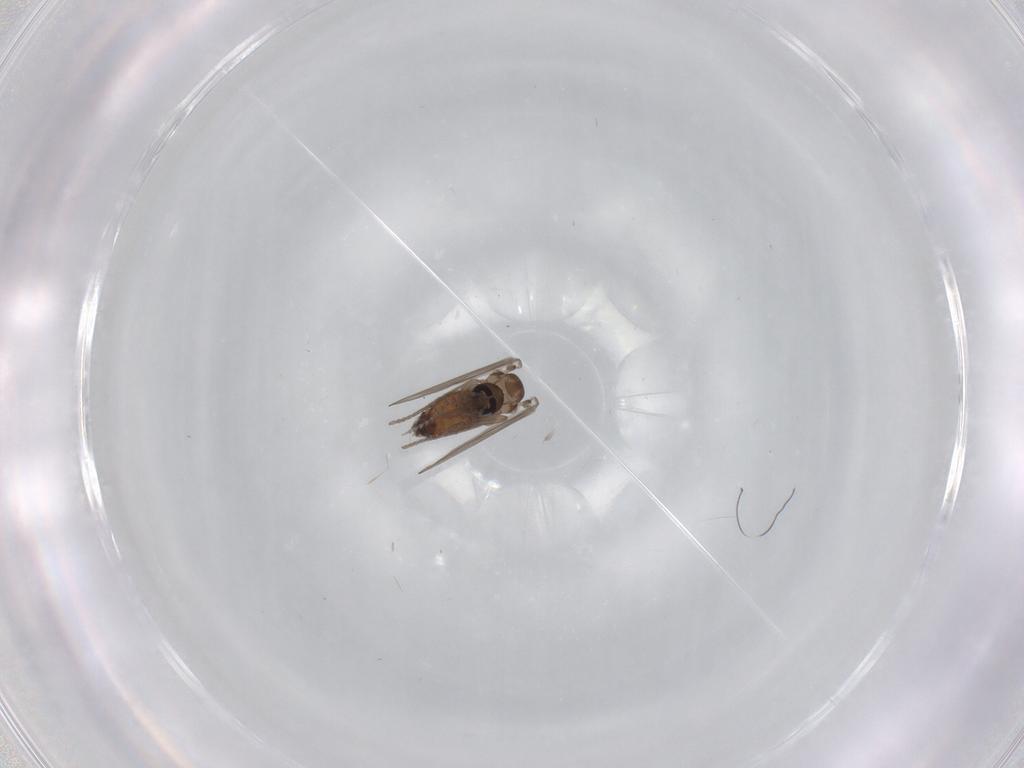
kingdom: Animalia
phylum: Arthropoda
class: Insecta
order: Diptera
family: Psychodidae
